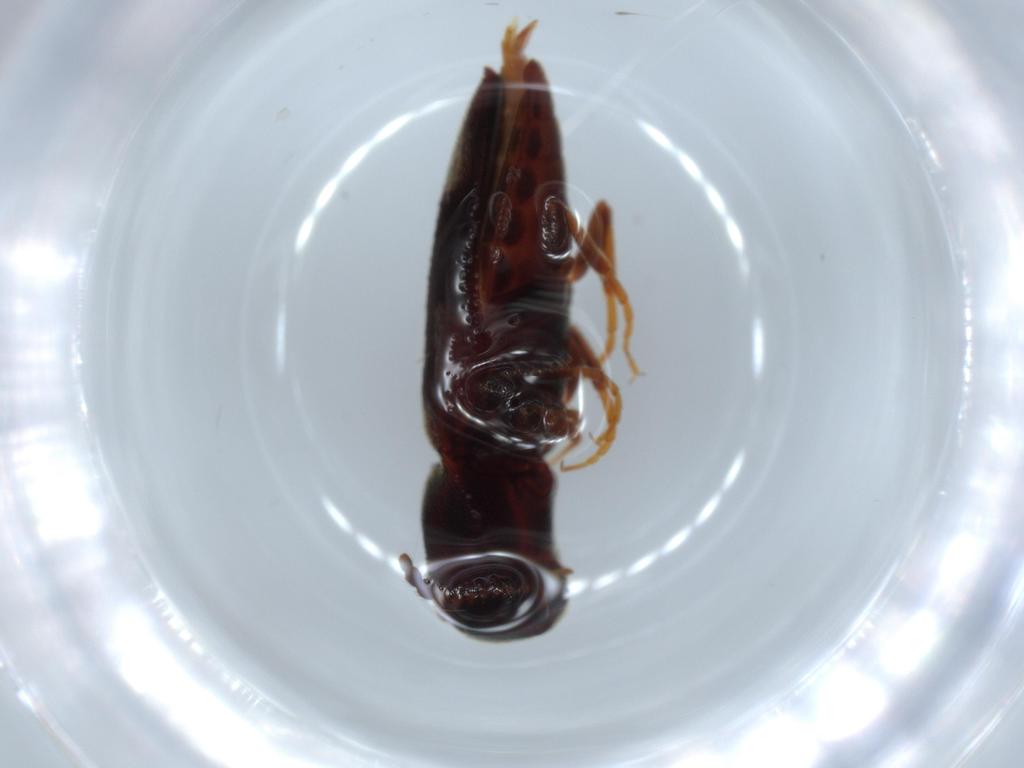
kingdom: Animalia
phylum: Arthropoda
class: Insecta
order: Coleoptera
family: Eucnemidae
